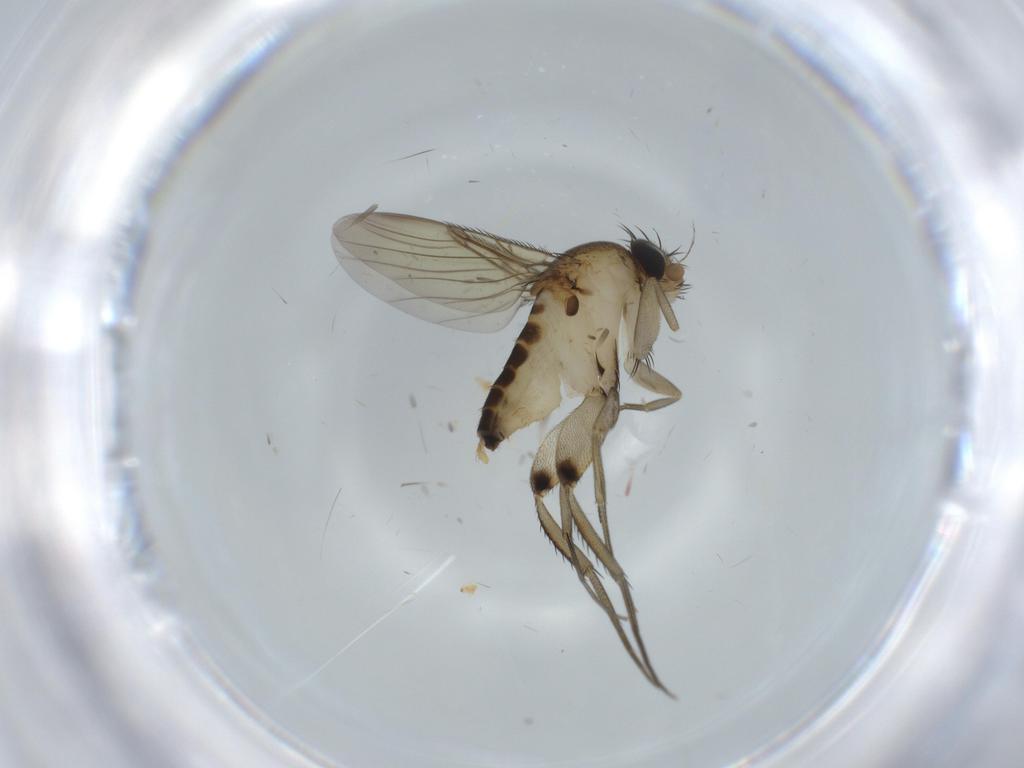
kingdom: Animalia
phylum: Arthropoda
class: Insecta
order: Diptera
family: Phoridae
